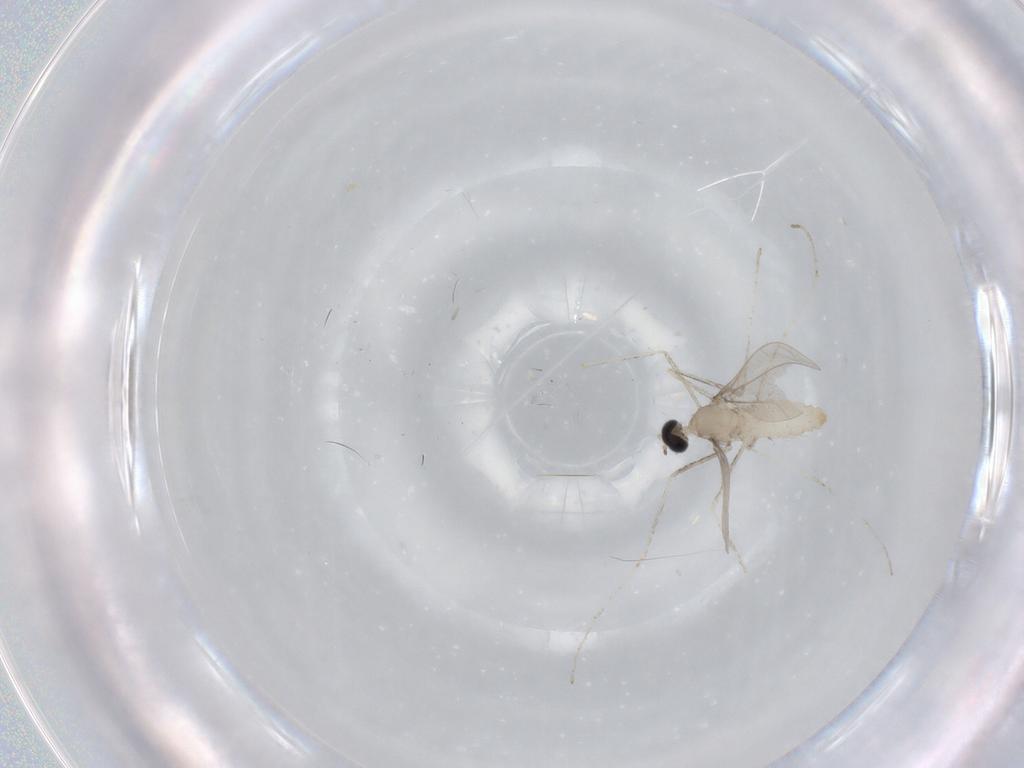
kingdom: Animalia
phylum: Arthropoda
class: Insecta
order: Diptera
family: Cecidomyiidae
